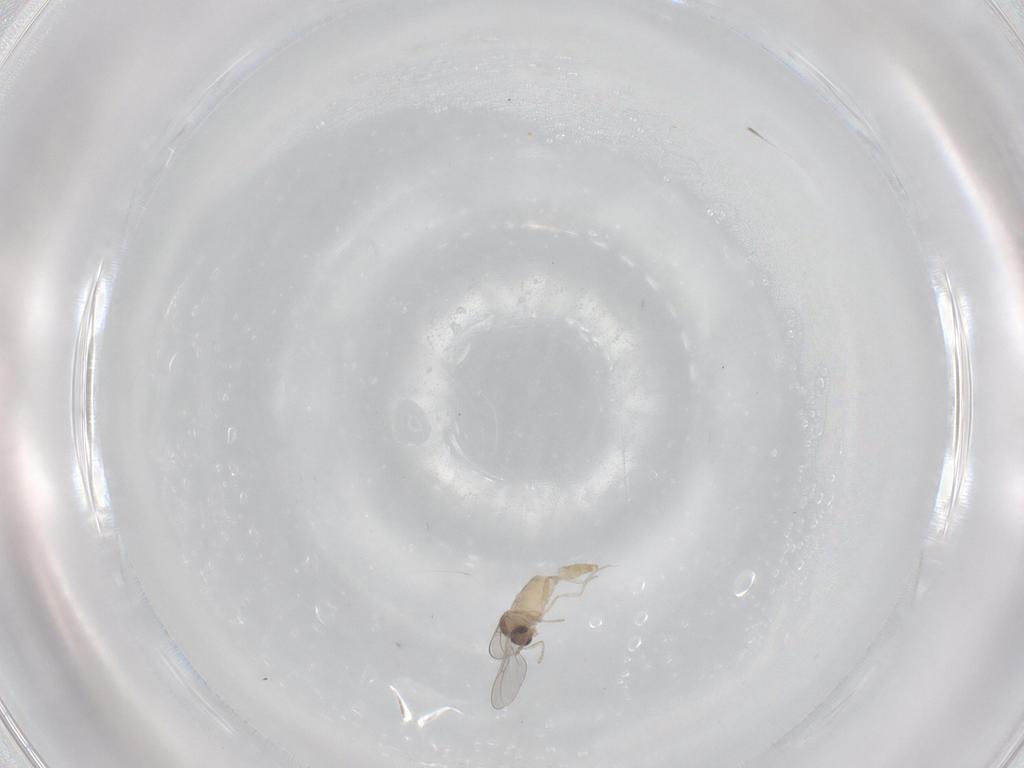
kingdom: Animalia
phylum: Arthropoda
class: Insecta
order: Diptera
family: Cecidomyiidae
